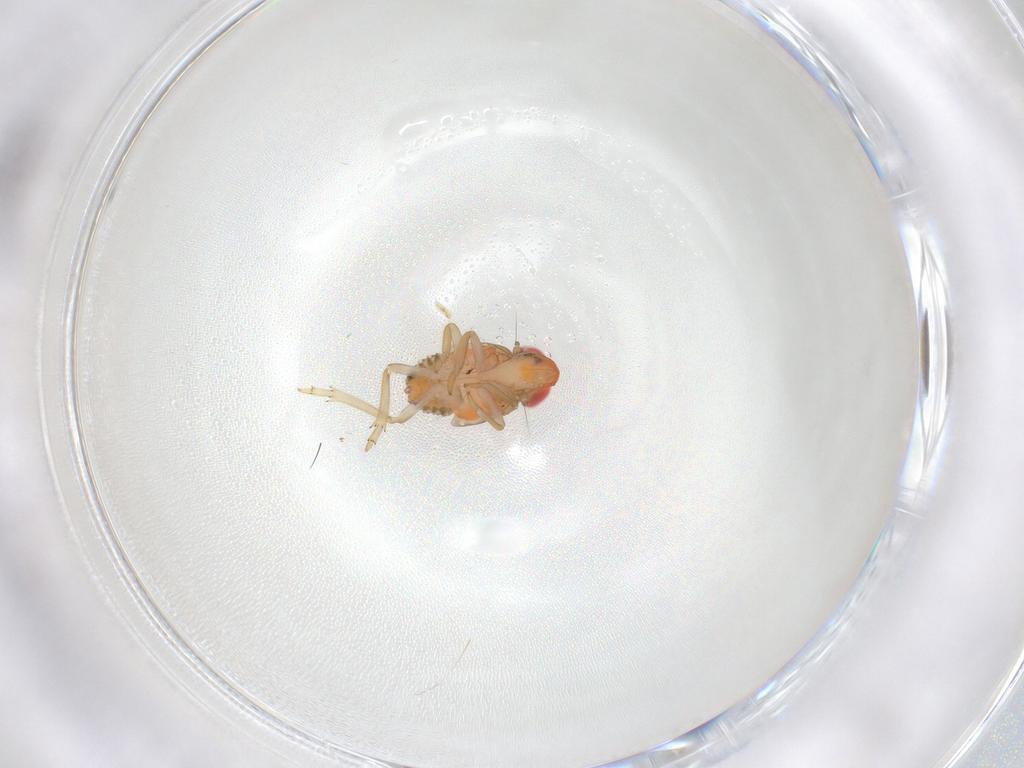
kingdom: Animalia
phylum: Arthropoda
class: Insecta
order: Hemiptera
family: Fulgoroidea_incertae_sedis
